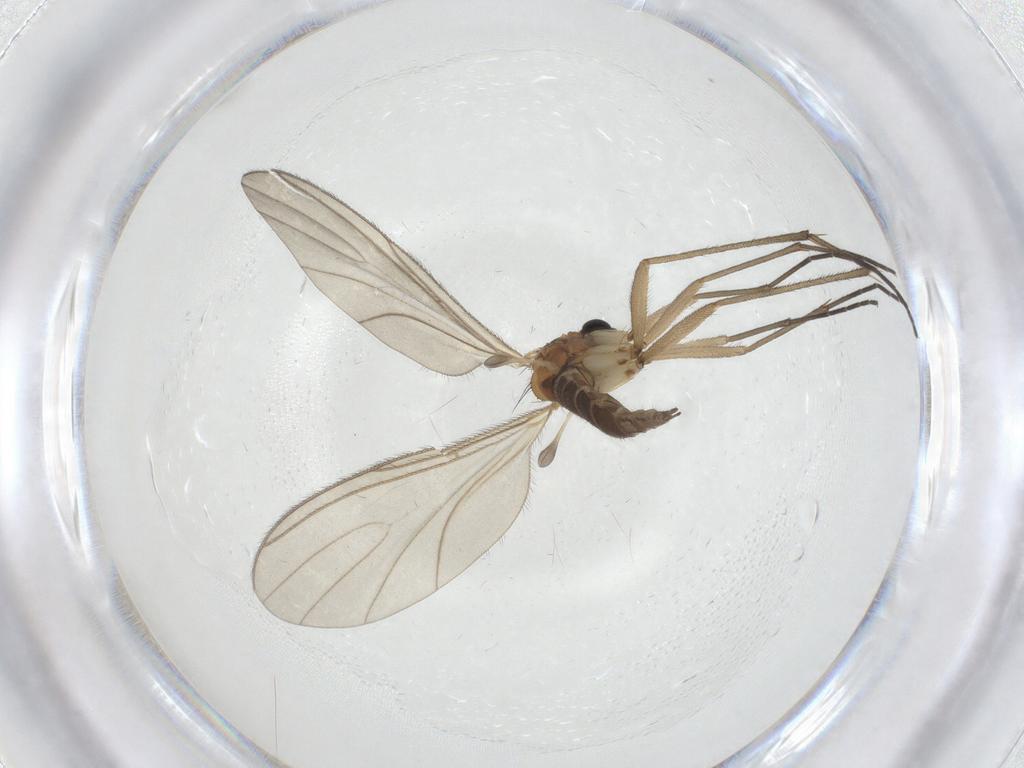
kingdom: Animalia
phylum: Arthropoda
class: Insecta
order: Diptera
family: Sciaridae
